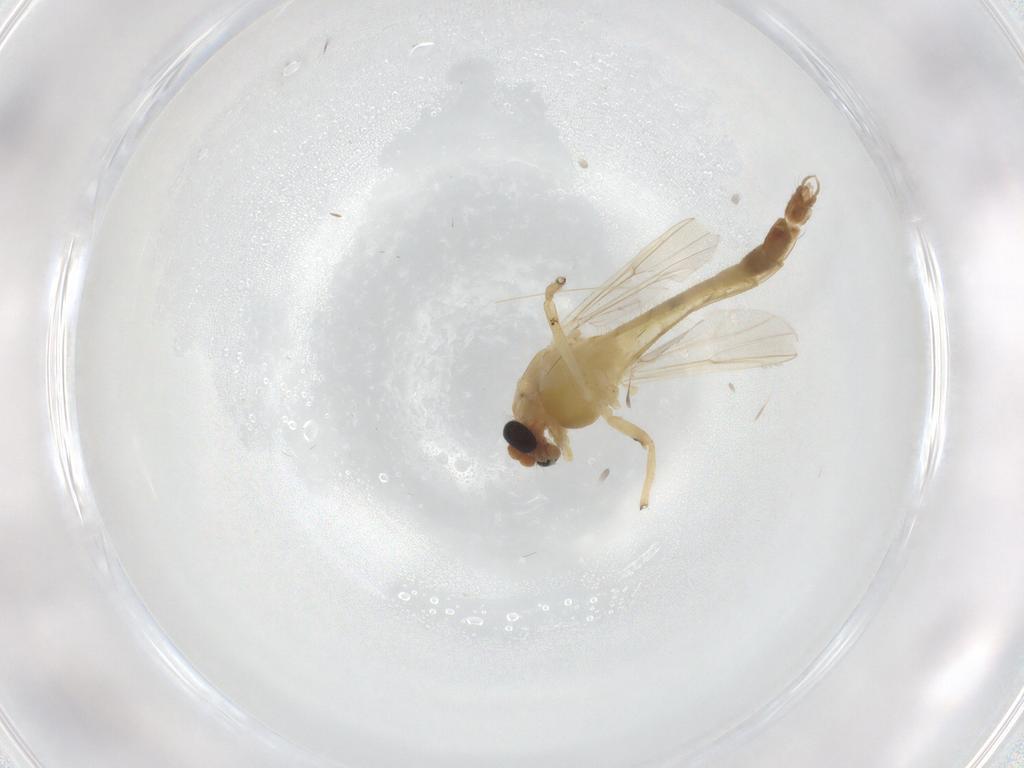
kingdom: Animalia
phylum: Arthropoda
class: Insecta
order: Diptera
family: Chironomidae
